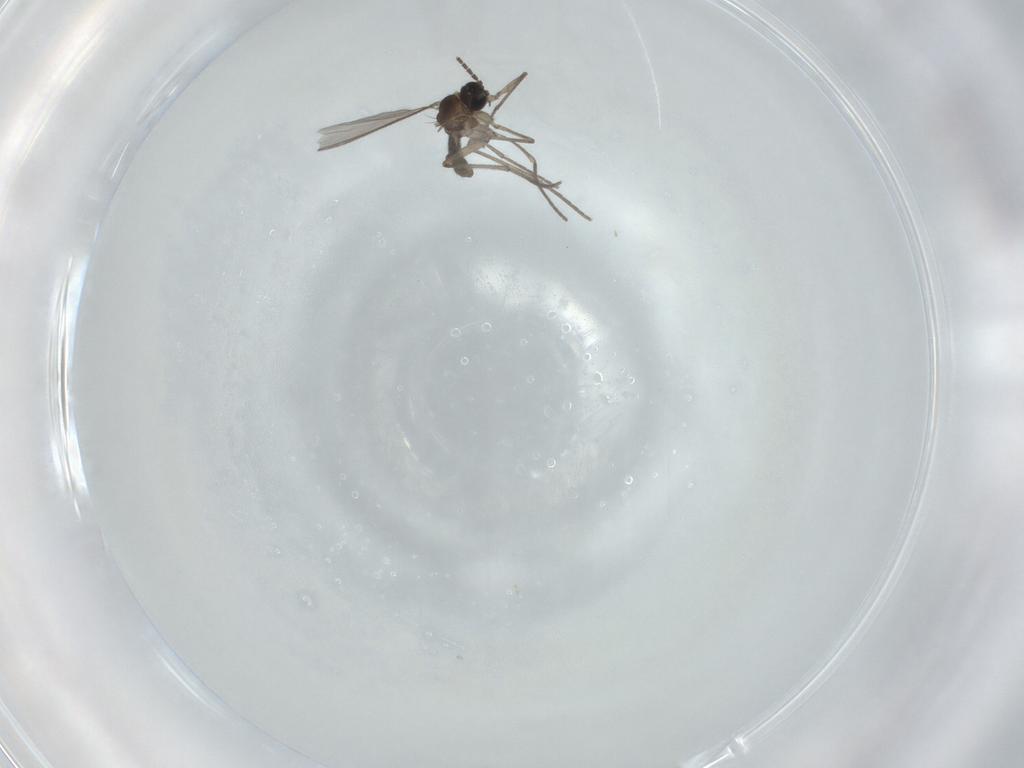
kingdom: Animalia
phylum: Arthropoda
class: Insecta
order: Diptera
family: Sciaridae
